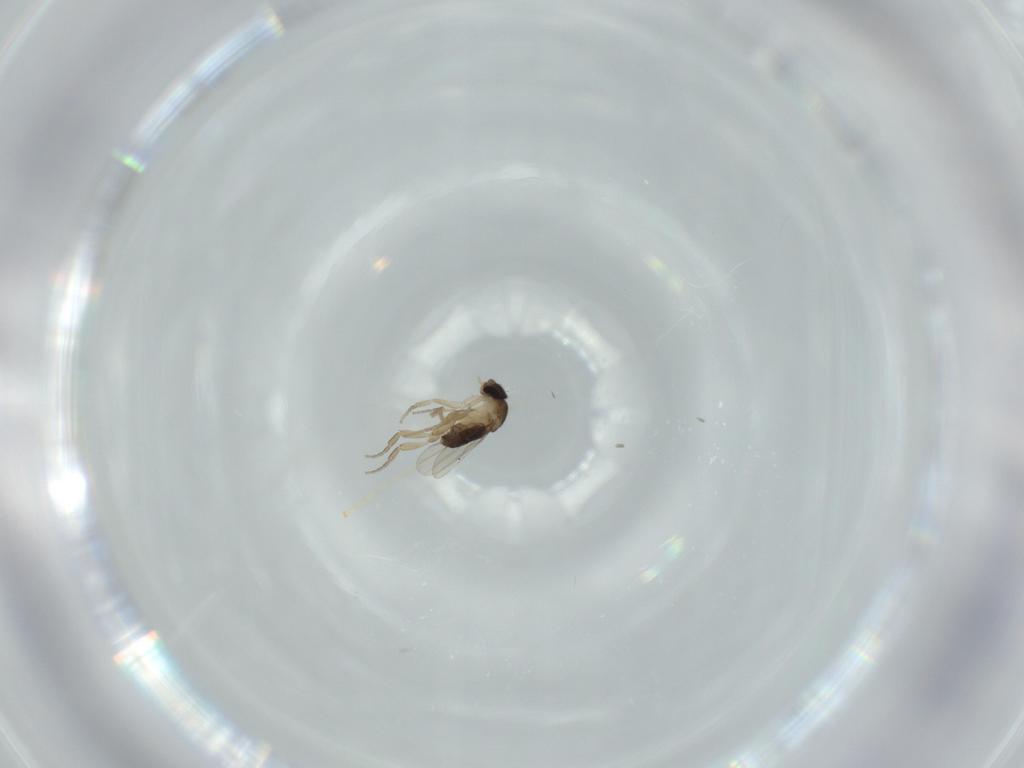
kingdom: Animalia
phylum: Arthropoda
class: Insecta
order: Diptera
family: Phoridae
